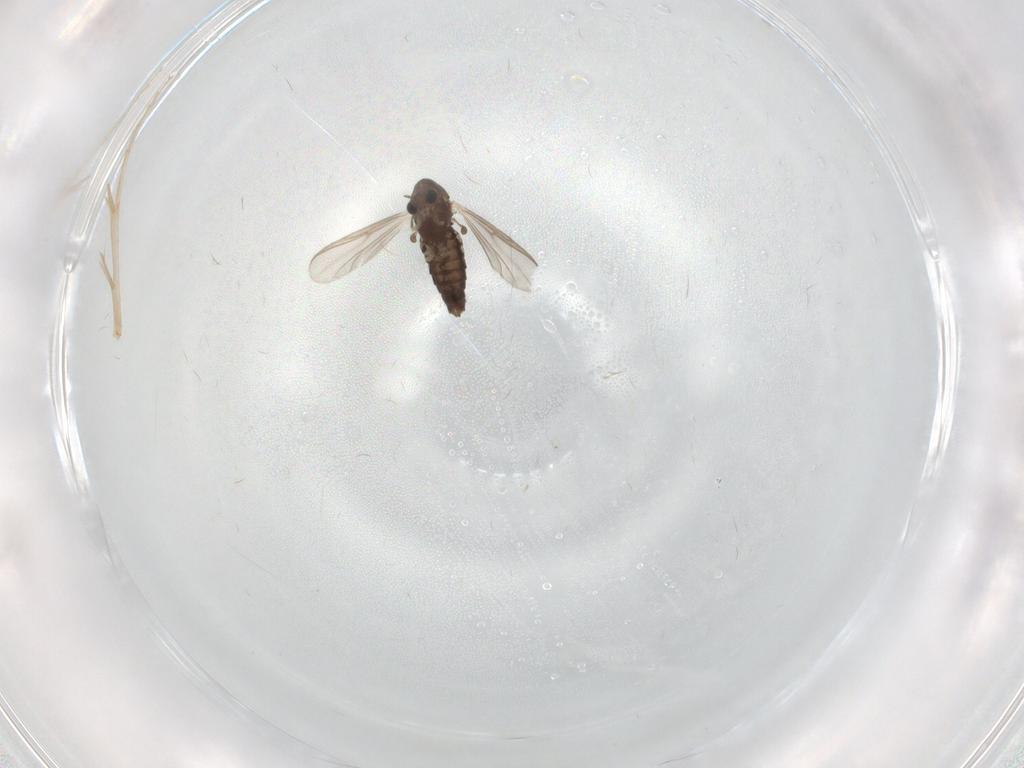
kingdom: Animalia
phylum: Arthropoda
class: Insecta
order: Diptera
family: Chironomidae
